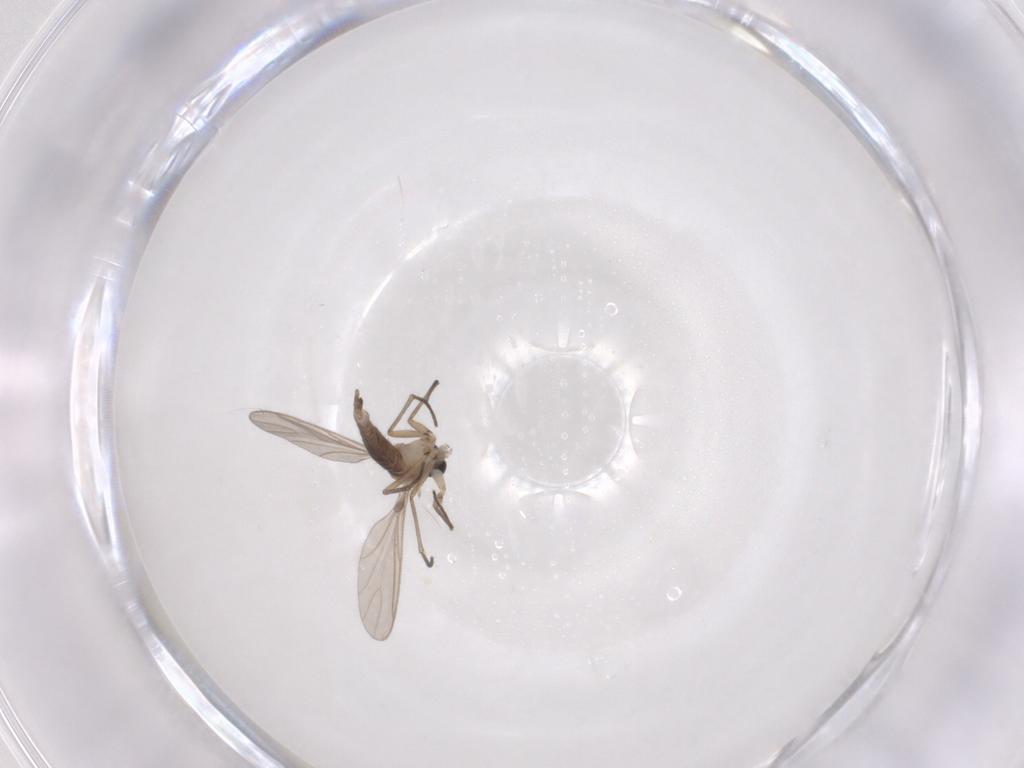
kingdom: Animalia
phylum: Arthropoda
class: Insecta
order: Diptera
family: Sciaridae
